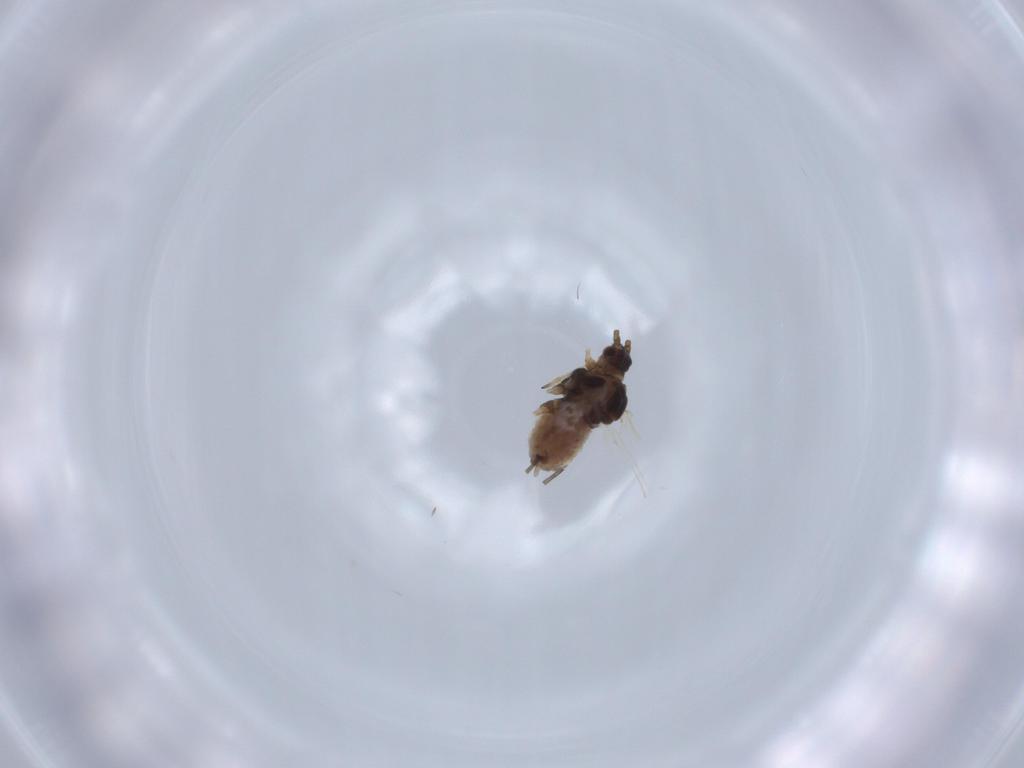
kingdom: Animalia
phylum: Arthropoda
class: Insecta
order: Hemiptera
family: Aphididae
